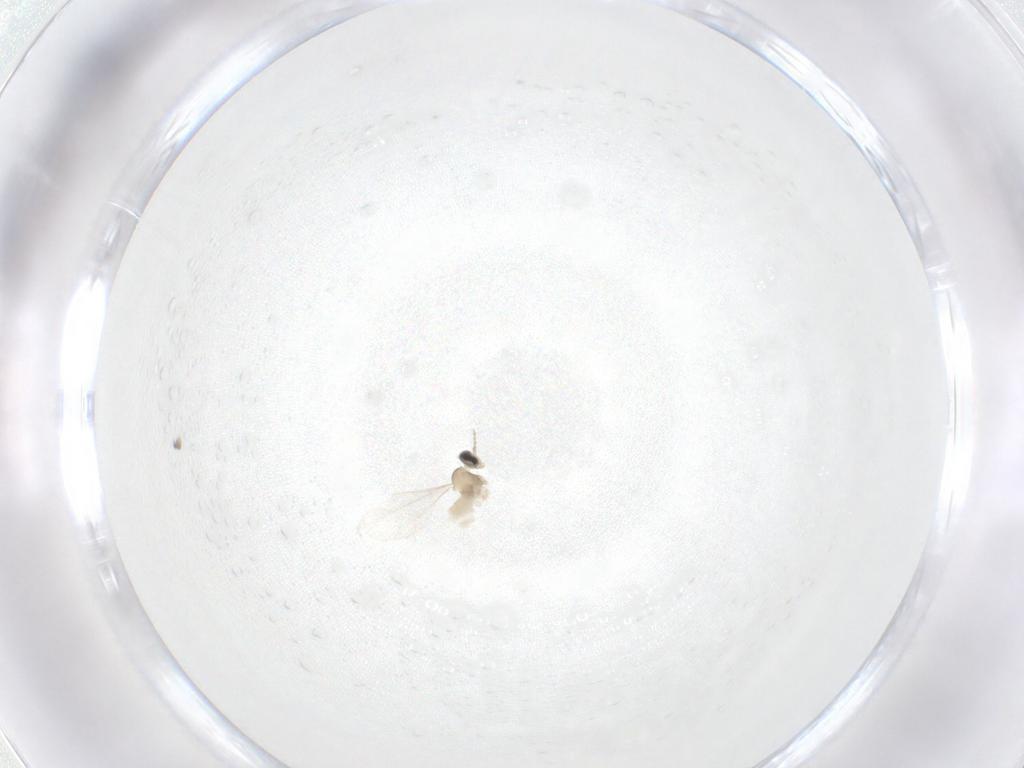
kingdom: Animalia
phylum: Arthropoda
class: Insecta
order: Diptera
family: Cecidomyiidae
